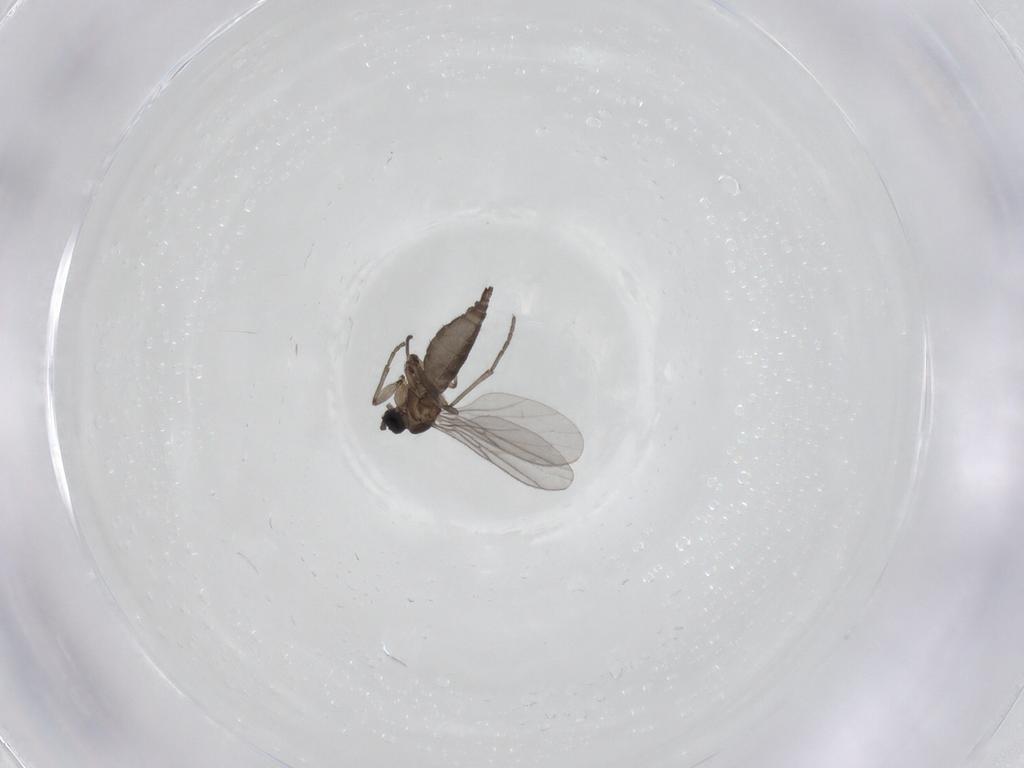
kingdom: Animalia
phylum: Arthropoda
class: Insecta
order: Diptera
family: Cecidomyiidae
